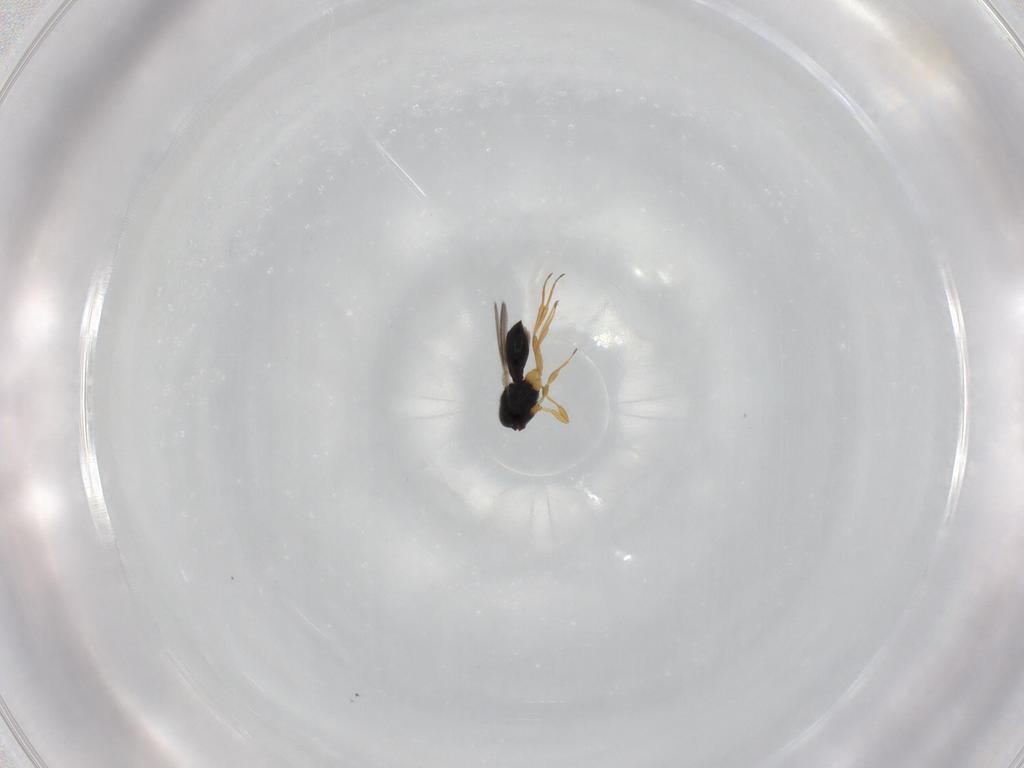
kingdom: Animalia
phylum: Arthropoda
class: Insecta
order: Hymenoptera
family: Scelionidae
